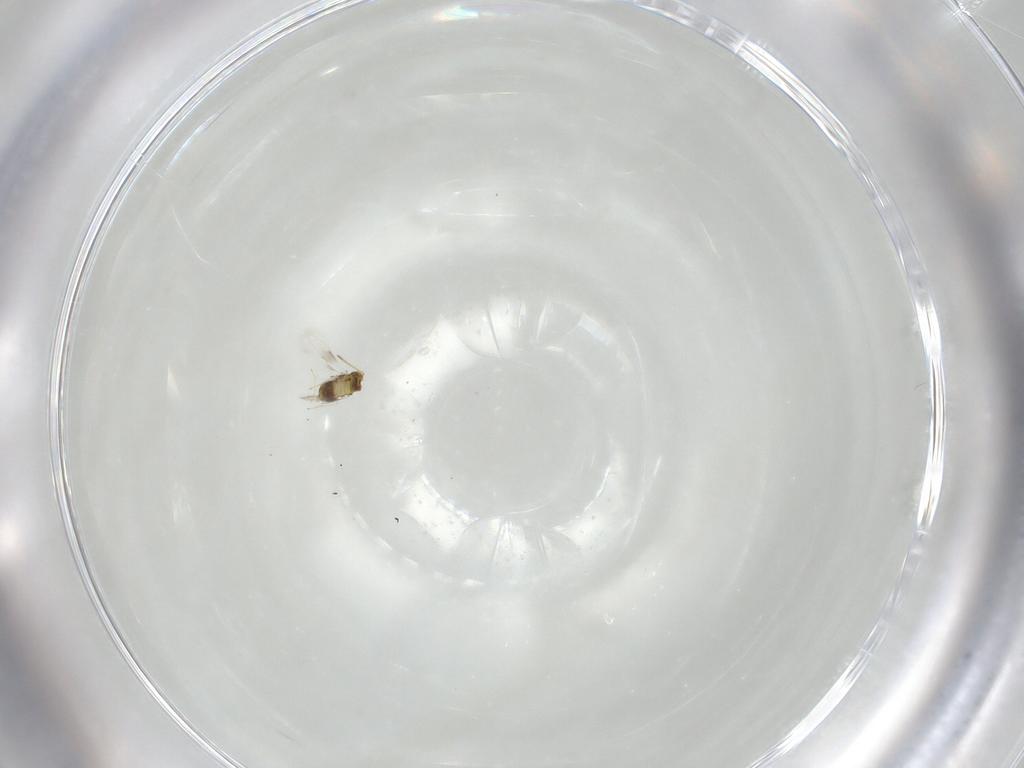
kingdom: Animalia
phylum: Arthropoda
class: Insecta
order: Hymenoptera
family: Aphelinidae
